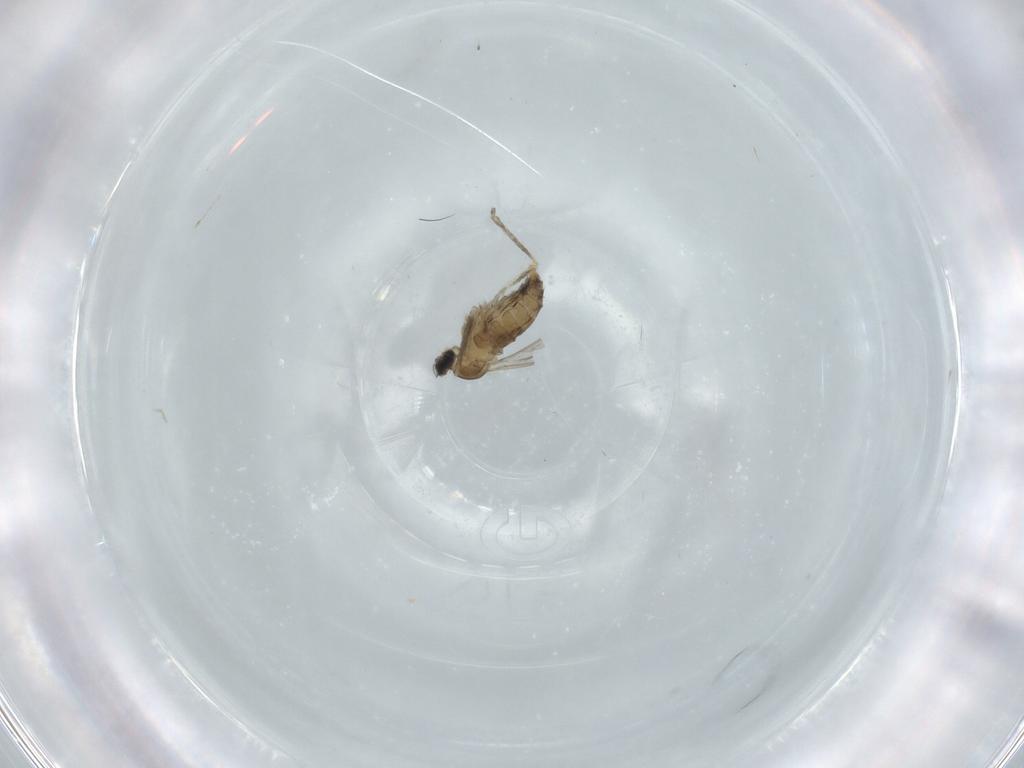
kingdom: Animalia
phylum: Arthropoda
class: Insecta
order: Diptera
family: Cecidomyiidae
